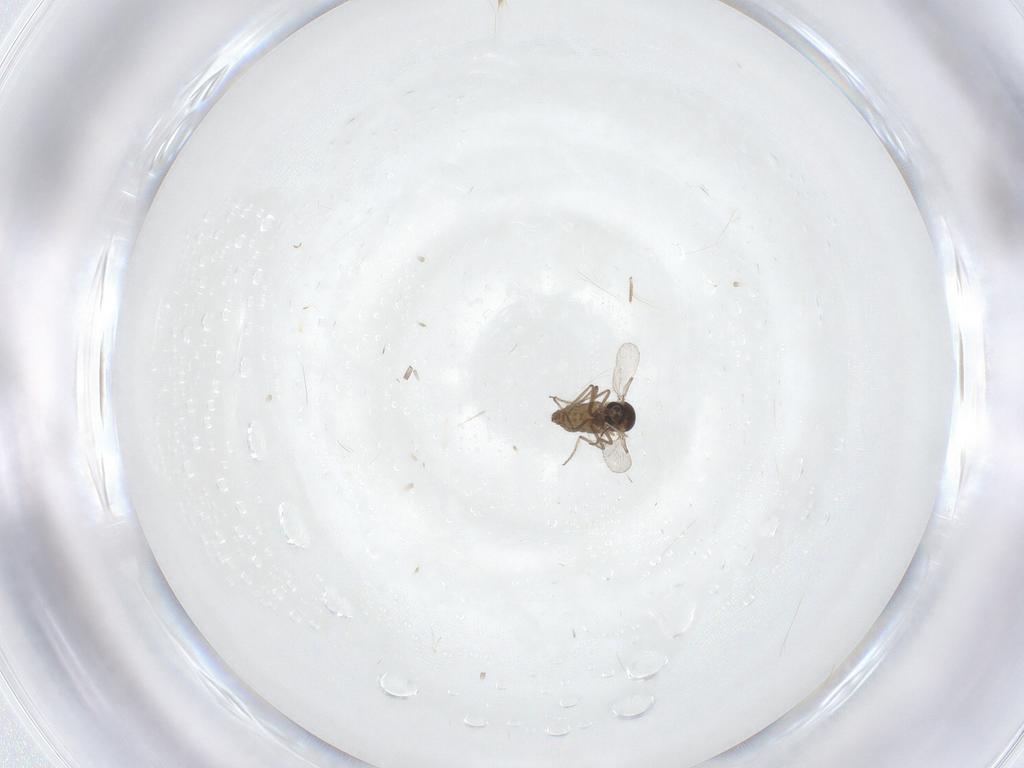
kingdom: Animalia
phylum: Arthropoda
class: Insecta
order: Diptera
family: Ceratopogonidae
